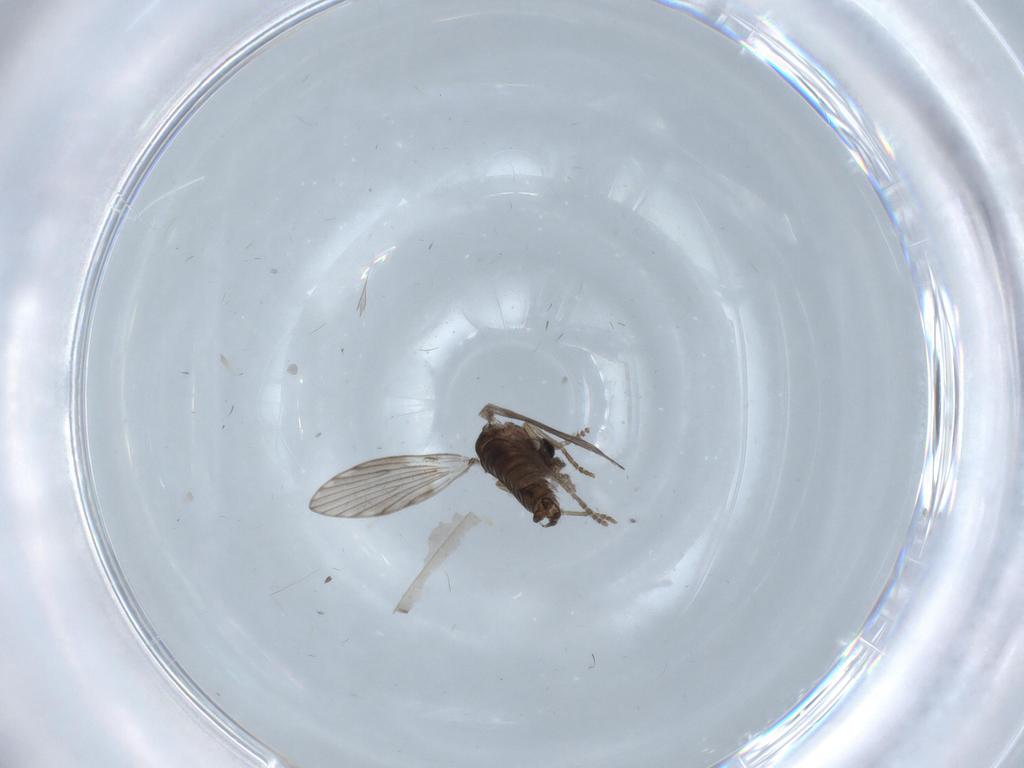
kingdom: Animalia
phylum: Arthropoda
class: Insecta
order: Diptera
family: Psychodidae
